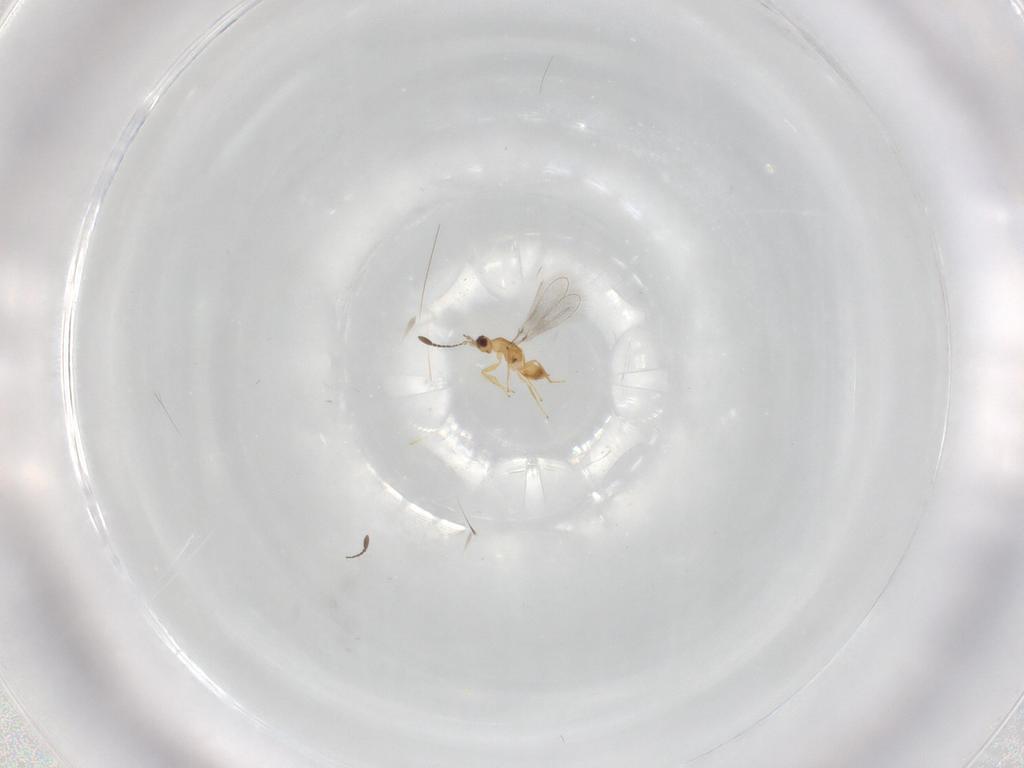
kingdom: Animalia
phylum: Arthropoda
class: Insecta
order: Hymenoptera
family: Mymaridae
